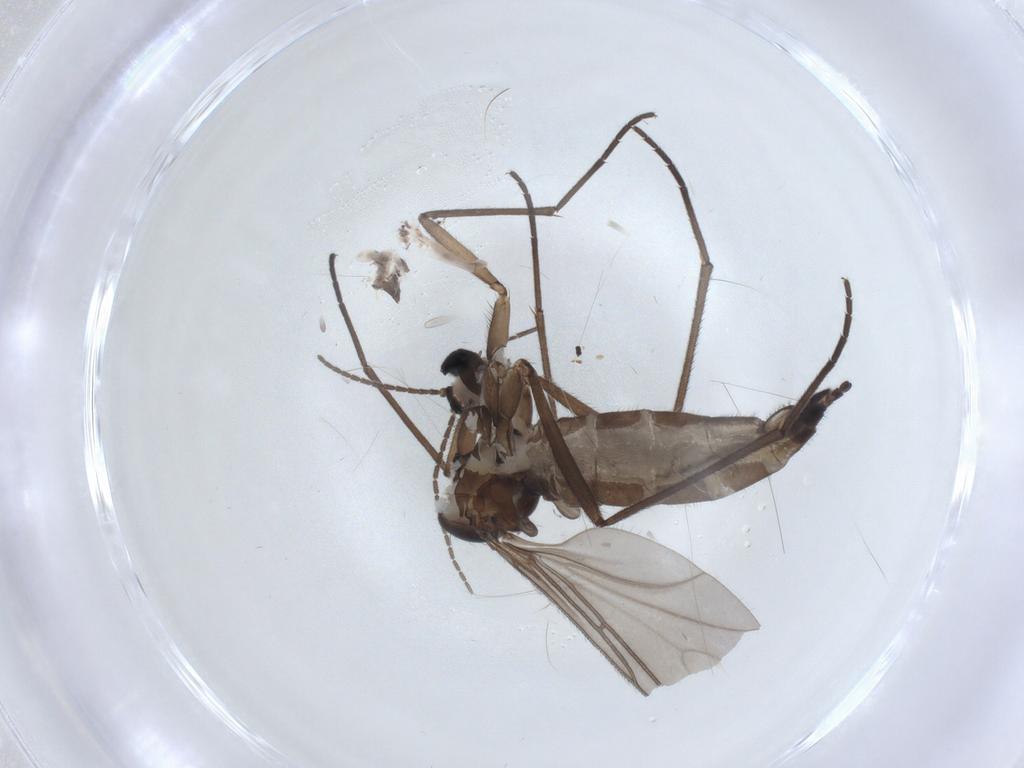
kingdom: Animalia
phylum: Arthropoda
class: Insecta
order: Diptera
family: Sciaridae
